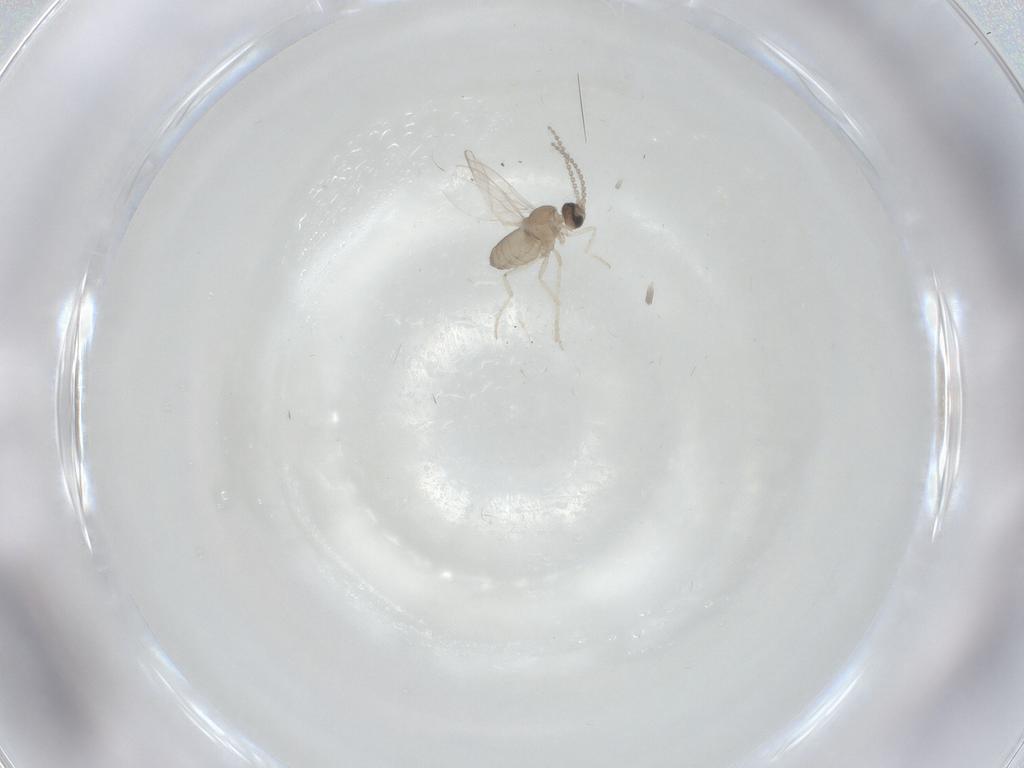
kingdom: Animalia
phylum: Arthropoda
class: Insecta
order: Diptera
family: Cecidomyiidae
